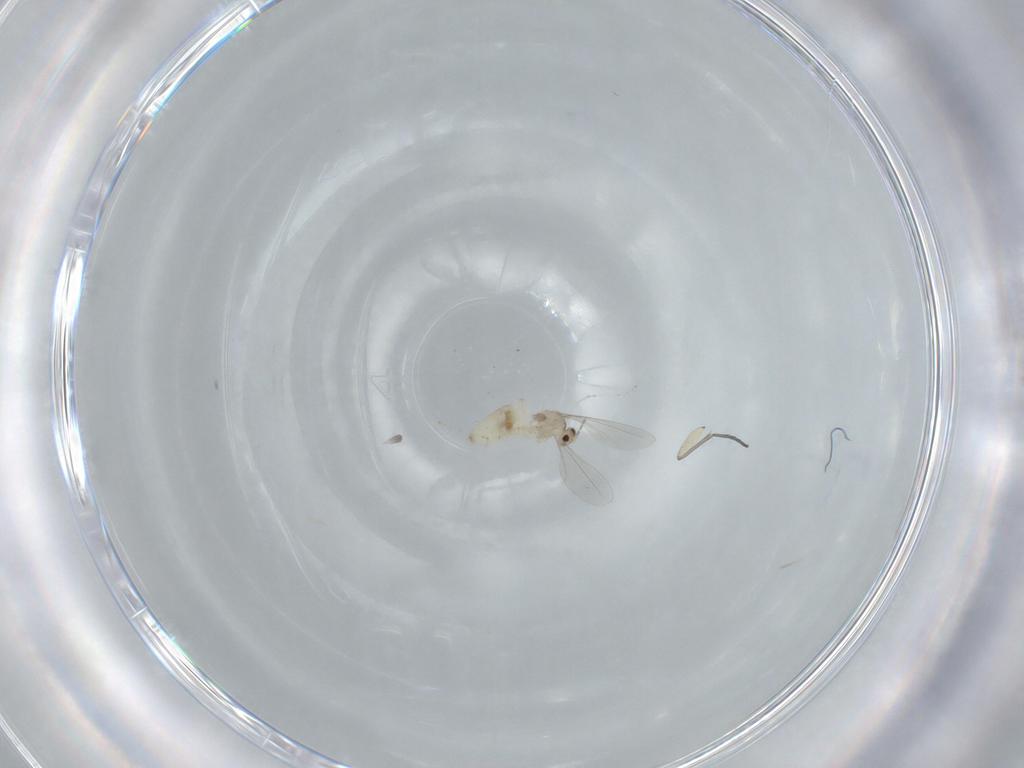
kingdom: Animalia
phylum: Arthropoda
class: Insecta
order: Diptera
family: Cecidomyiidae
